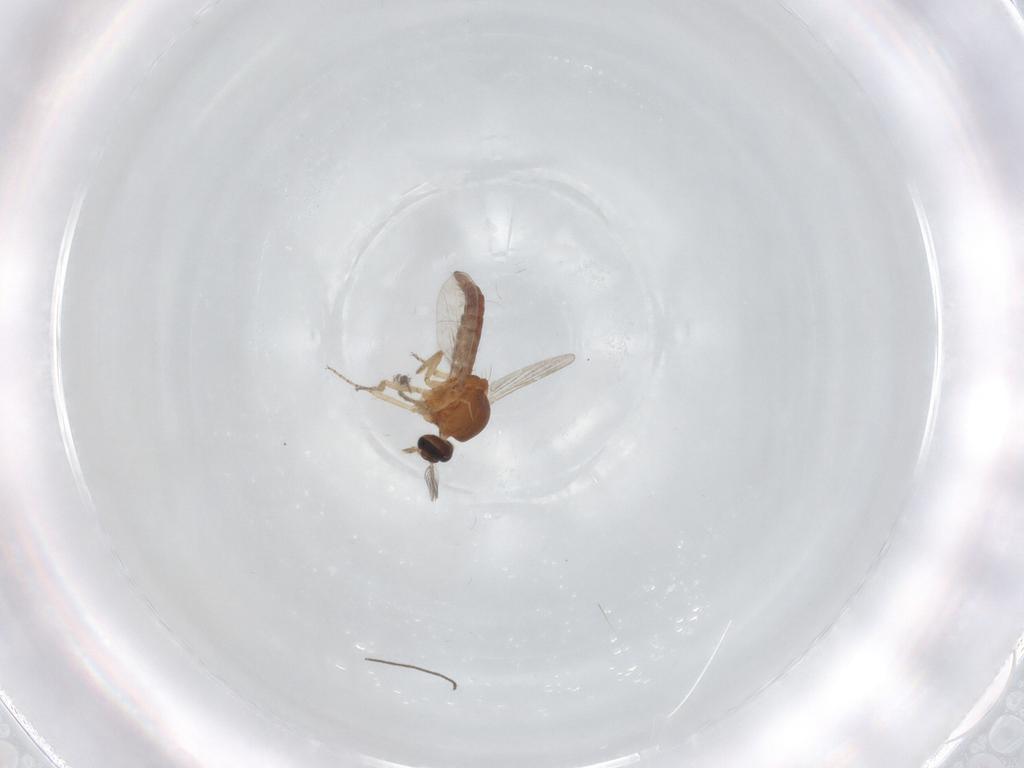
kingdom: Animalia
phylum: Arthropoda
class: Insecta
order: Diptera
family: Ceratopogonidae
